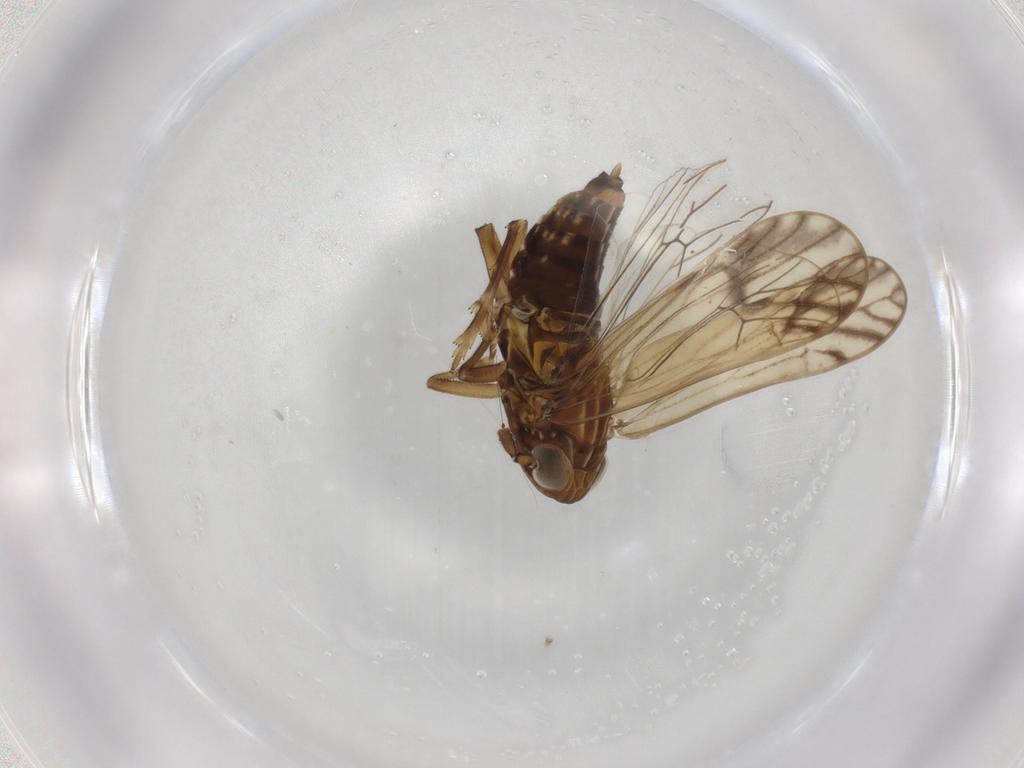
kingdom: Animalia
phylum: Arthropoda
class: Insecta
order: Hemiptera
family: Delphacidae
